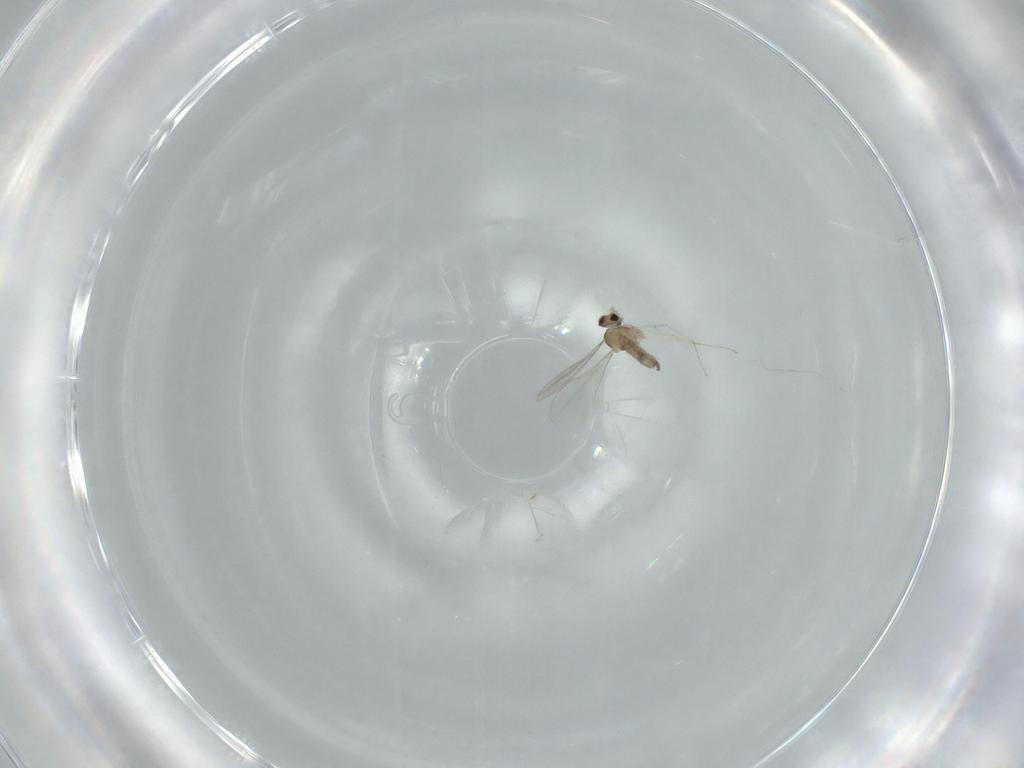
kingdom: Animalia
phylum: Arthropoda
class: Insecta
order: Diptera
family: Cecidomyiidae
